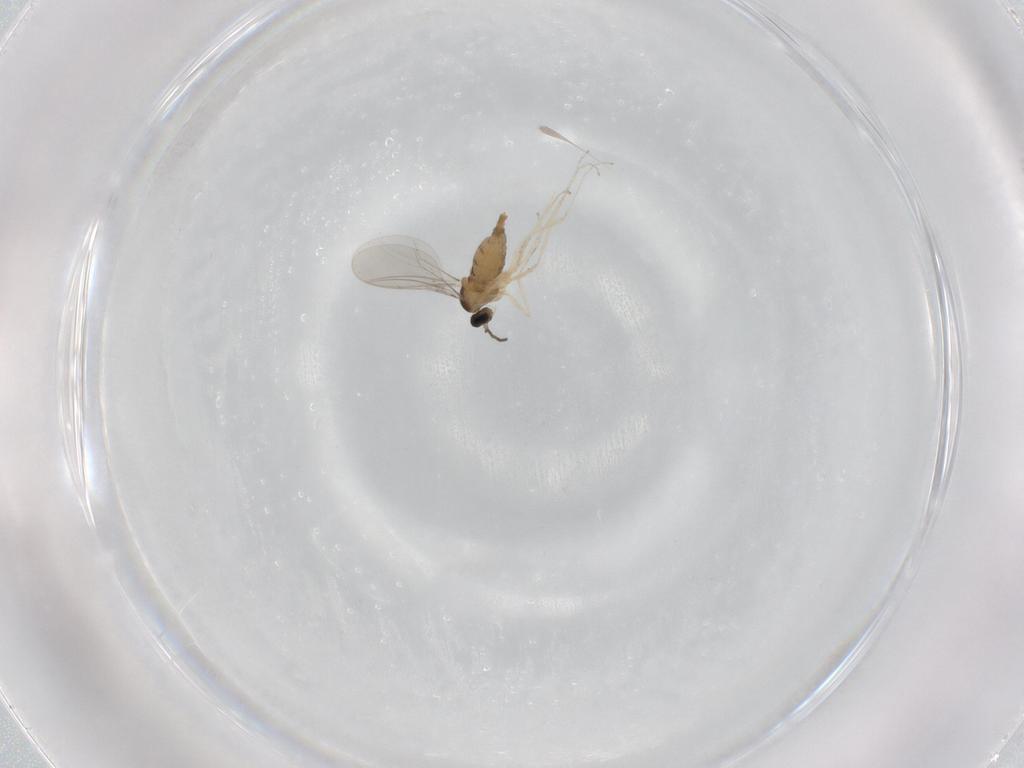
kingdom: Animalia
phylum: Arthropoda
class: Insecta
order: Diptera
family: Cecidomyiidae
